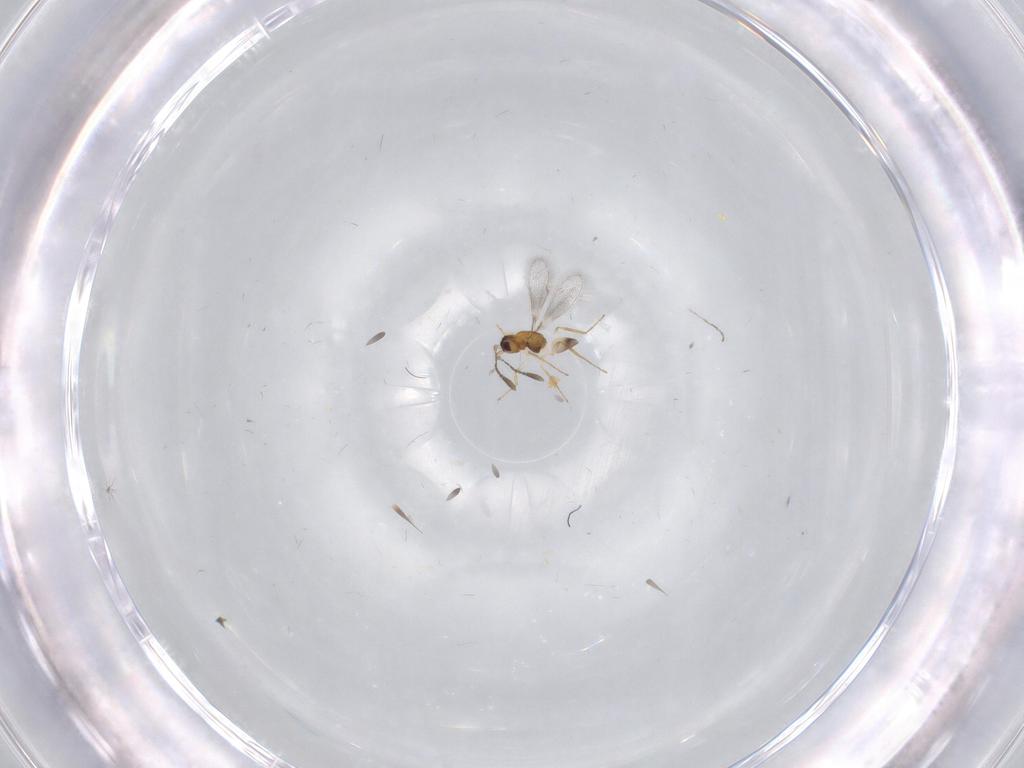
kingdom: Animalia
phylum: Arthropoda
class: Insecta
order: Hymenoptera
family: Mymaridae
